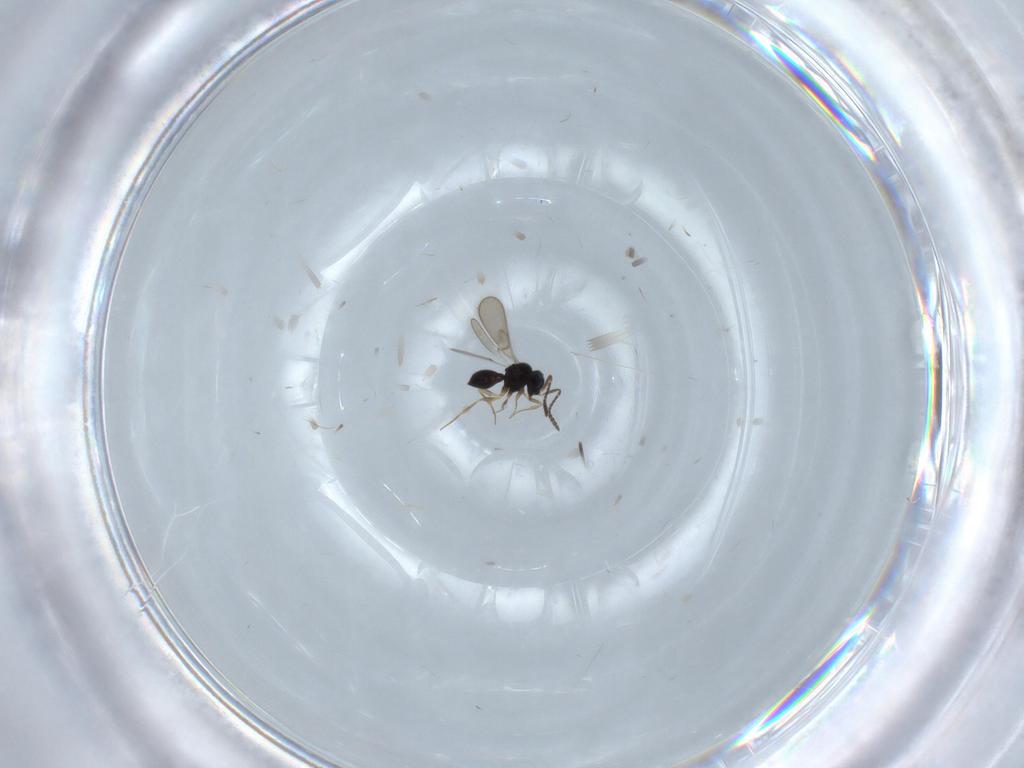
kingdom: Animalia
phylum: Arthropoda
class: Insecta
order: Hymenoptera
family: Scelionidae
